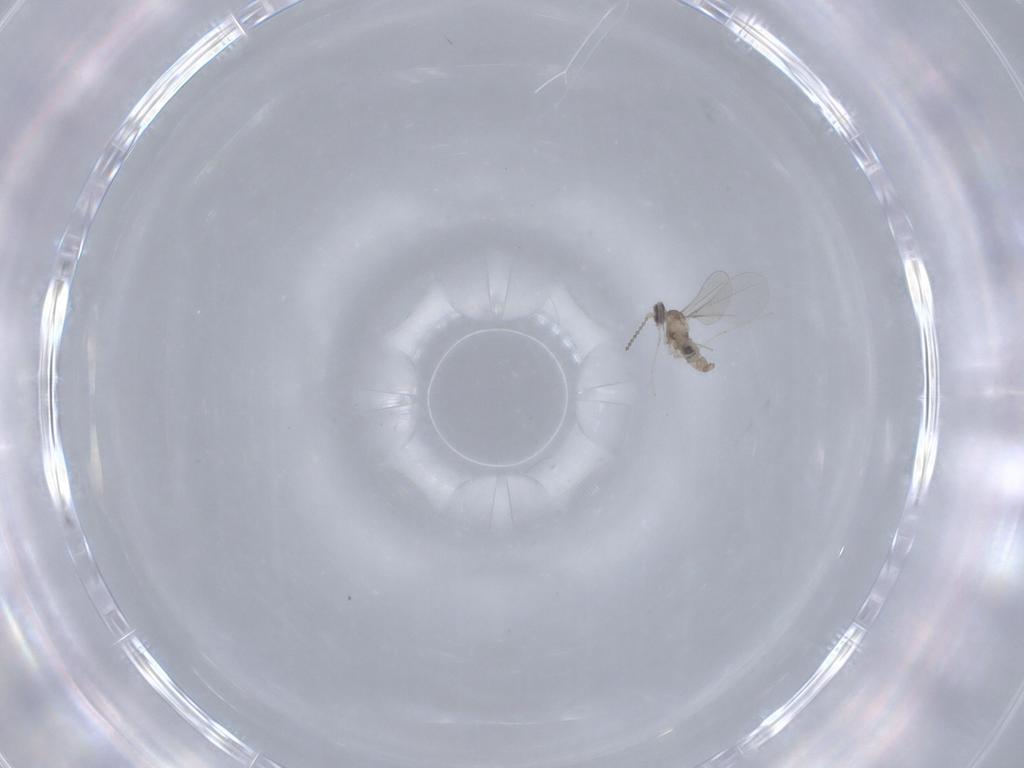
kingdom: Animalia
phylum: Arthropoda
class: Insecta
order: Diptera
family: Cecidomyiidae
